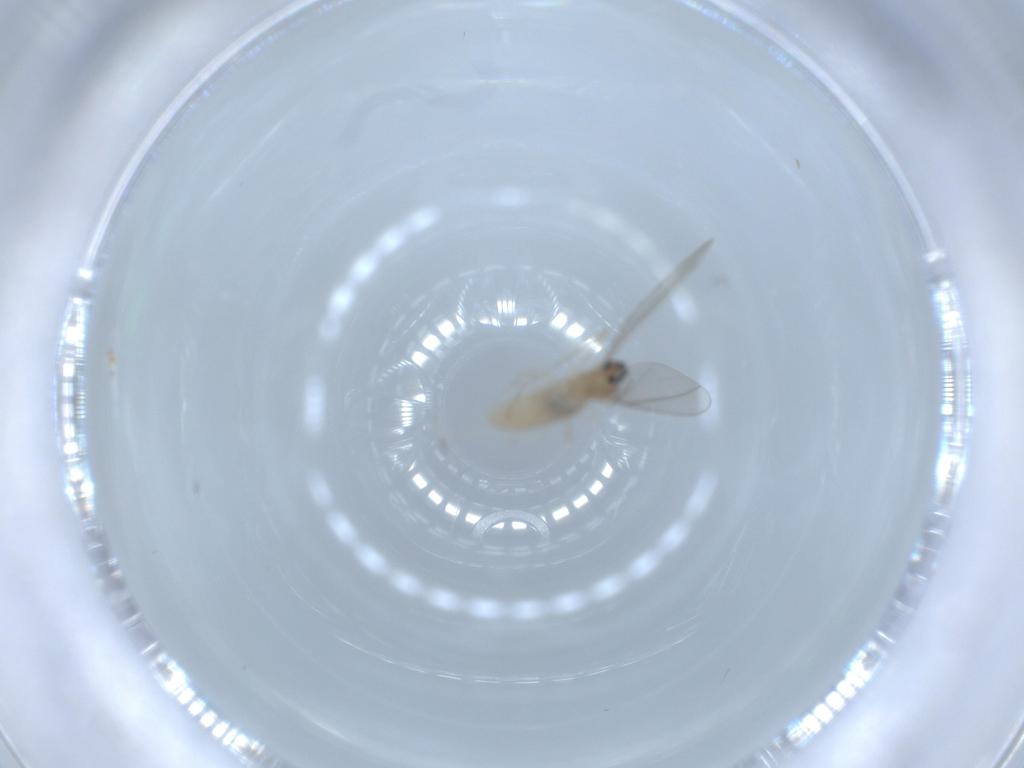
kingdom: Animalia
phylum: Arthropoda
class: Insecta
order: Diptera
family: Cecidomyiidae
